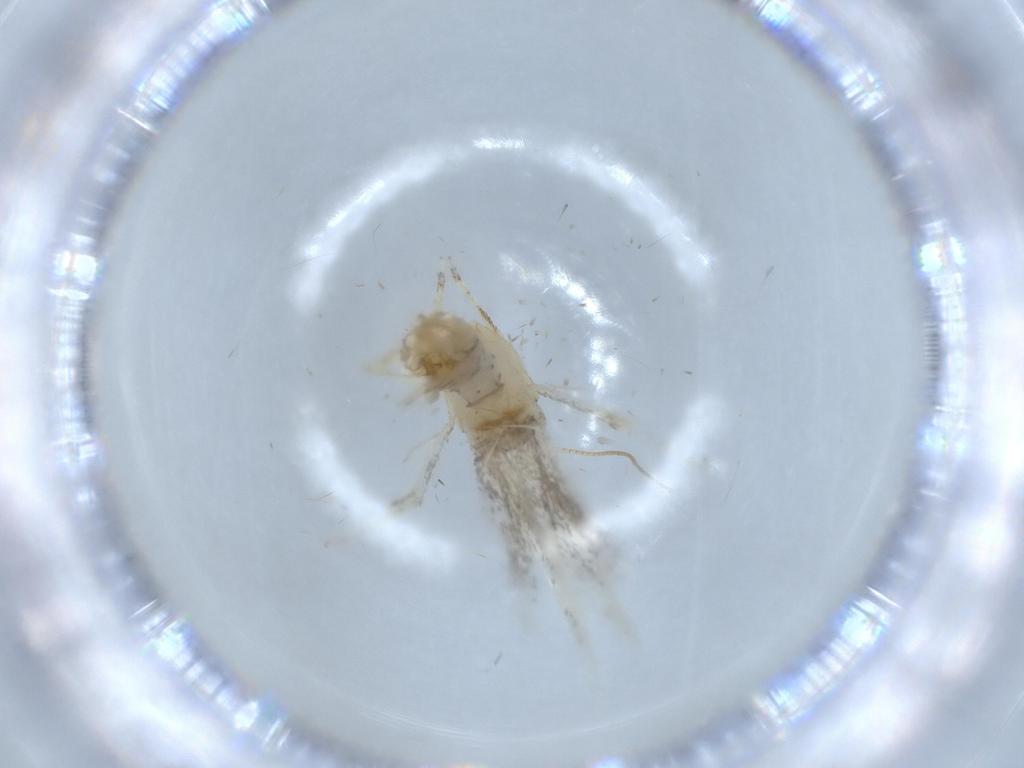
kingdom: Animalia
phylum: Arthropoda
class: Insecta
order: Lepidoptera
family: Tineidae
